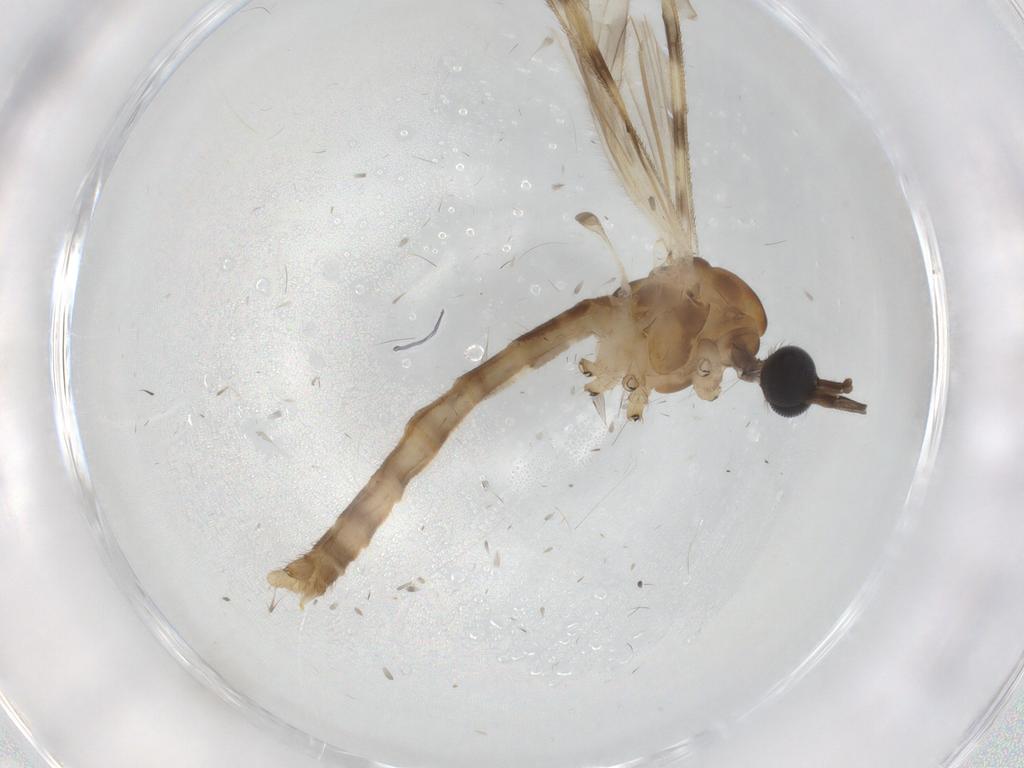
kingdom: Animalia
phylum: Arthropoda
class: Insecta
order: Diptera
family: Dolichopodidae
